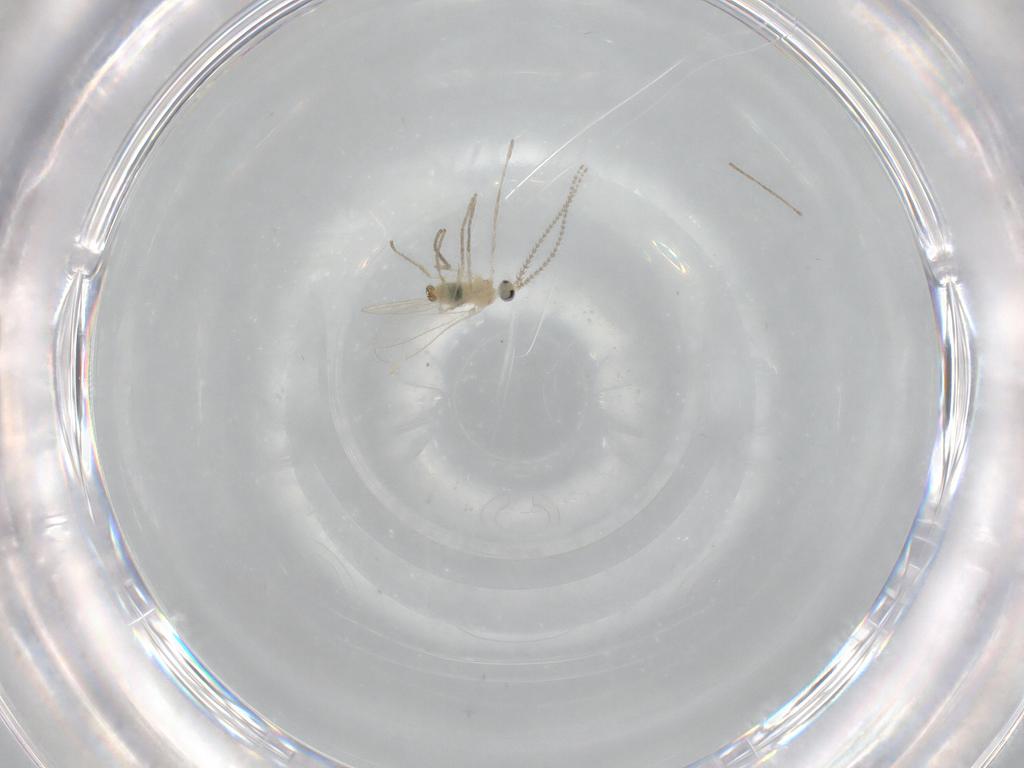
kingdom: Animalia
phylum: Arthropoda
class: Insecta
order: Diptera
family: Cecidomyiidae
